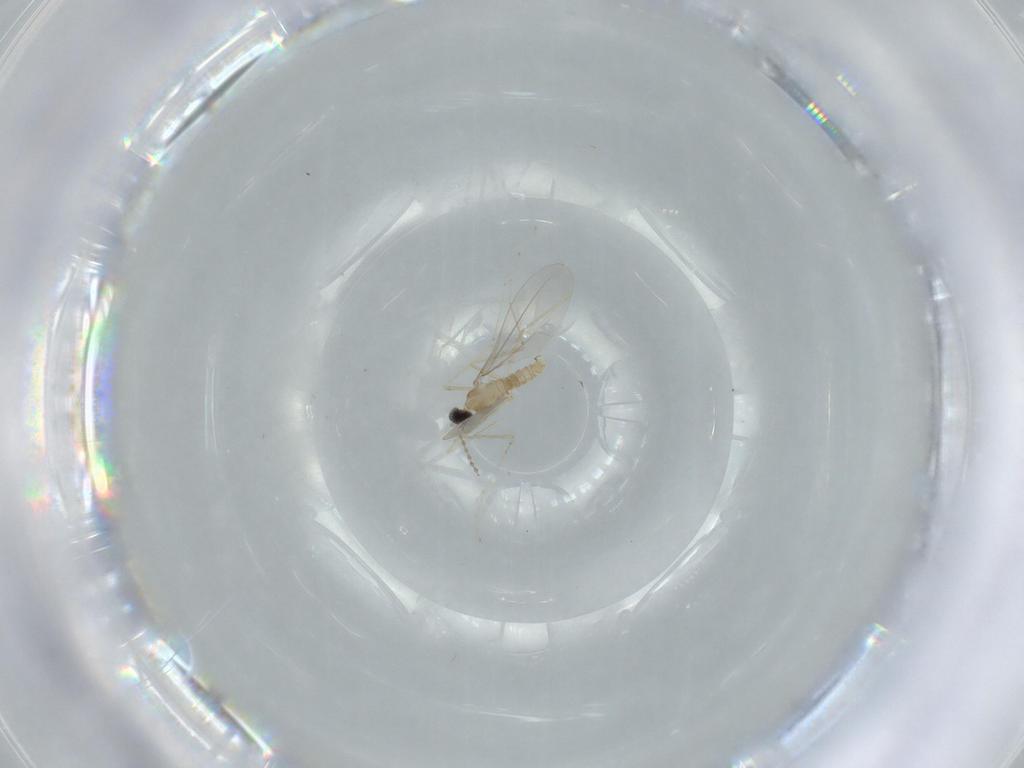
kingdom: Animalia
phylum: Arthropoda
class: Insecta
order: Diptera
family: Cecidomyiidae
